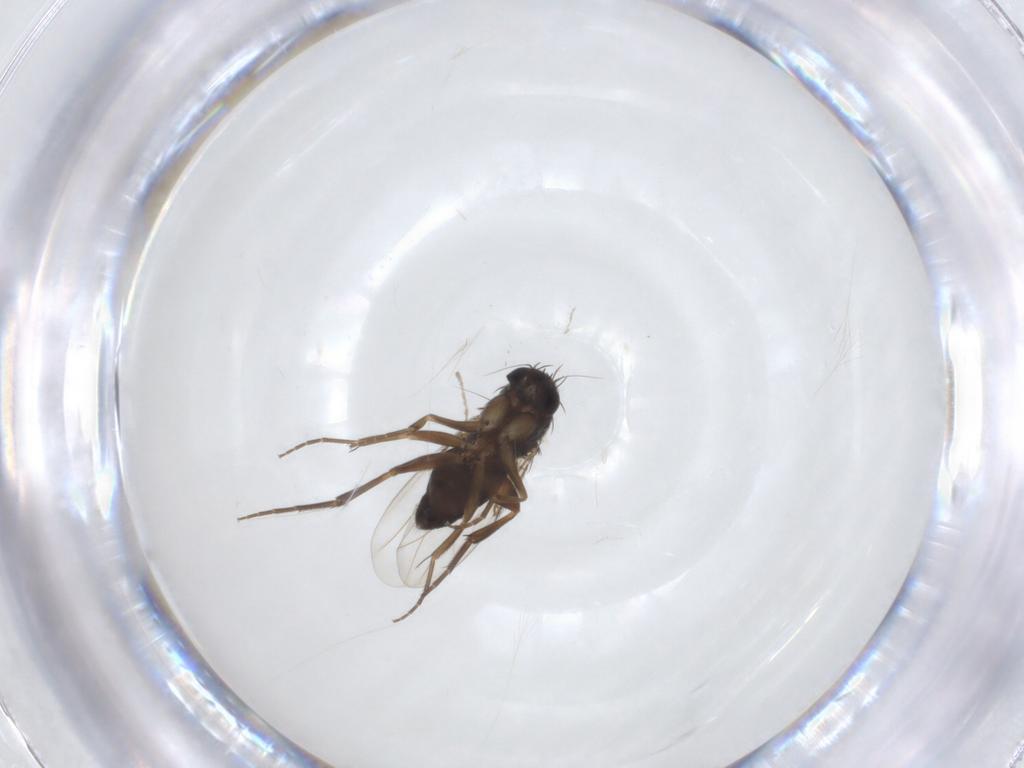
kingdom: Animalia
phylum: Arthropoda
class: Insecta
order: Diptera
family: Phoridae
